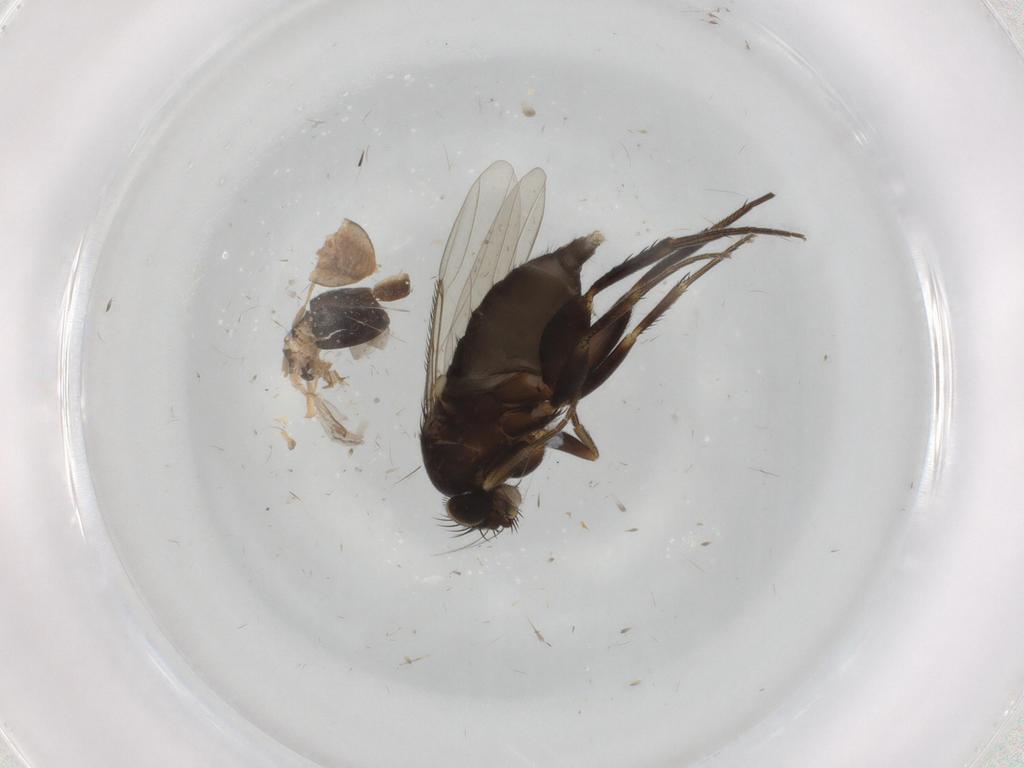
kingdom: Animalia
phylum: Arthropoda
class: Insecta
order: Diptera
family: Phoridae
